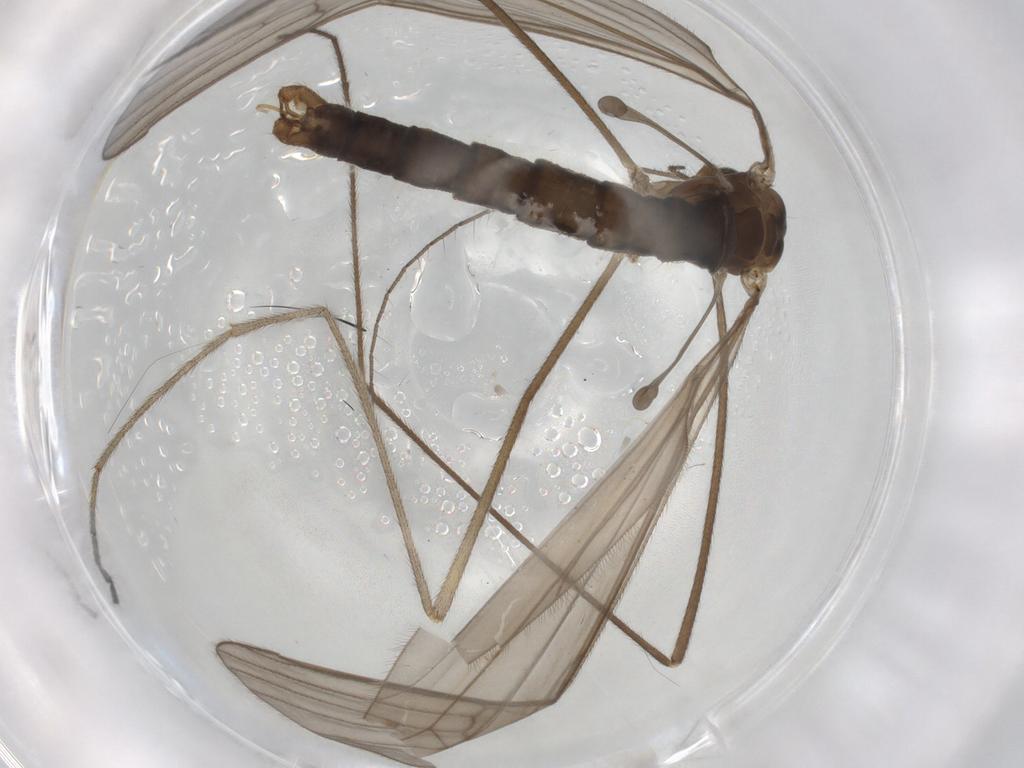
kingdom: Animalia
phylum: Arthropoda
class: Insecta
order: Diptera
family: Limoniidae
